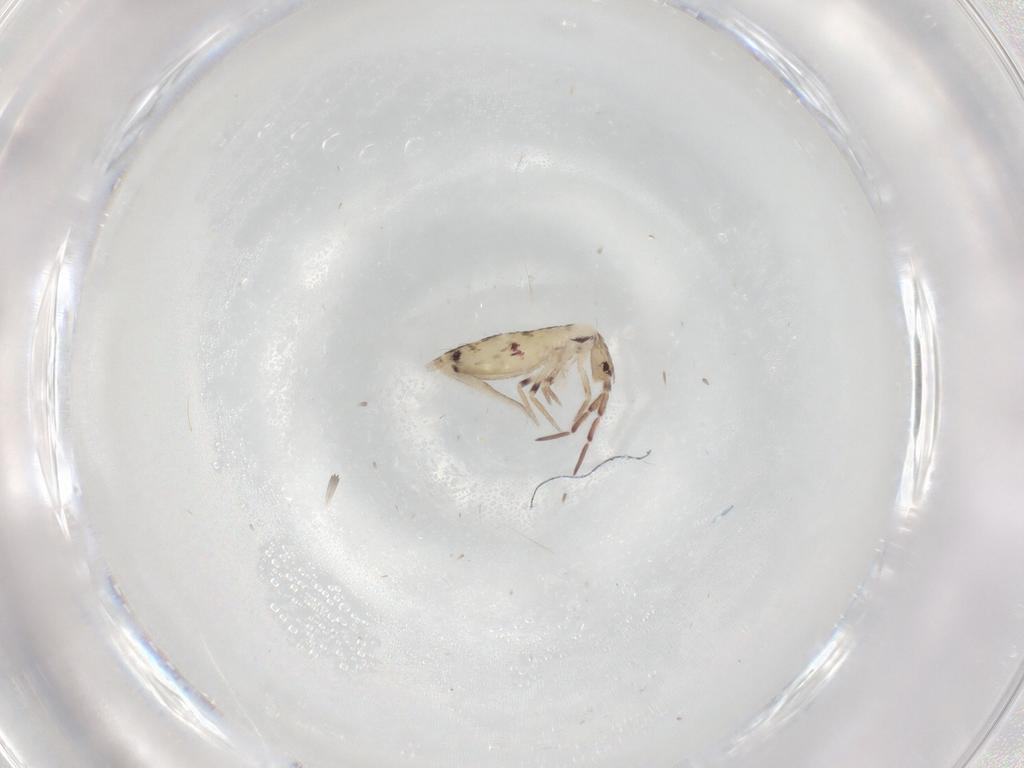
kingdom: Animalia
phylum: Arthropoda
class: Collembola
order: Entomobryomorpha
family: Entomobryidae
